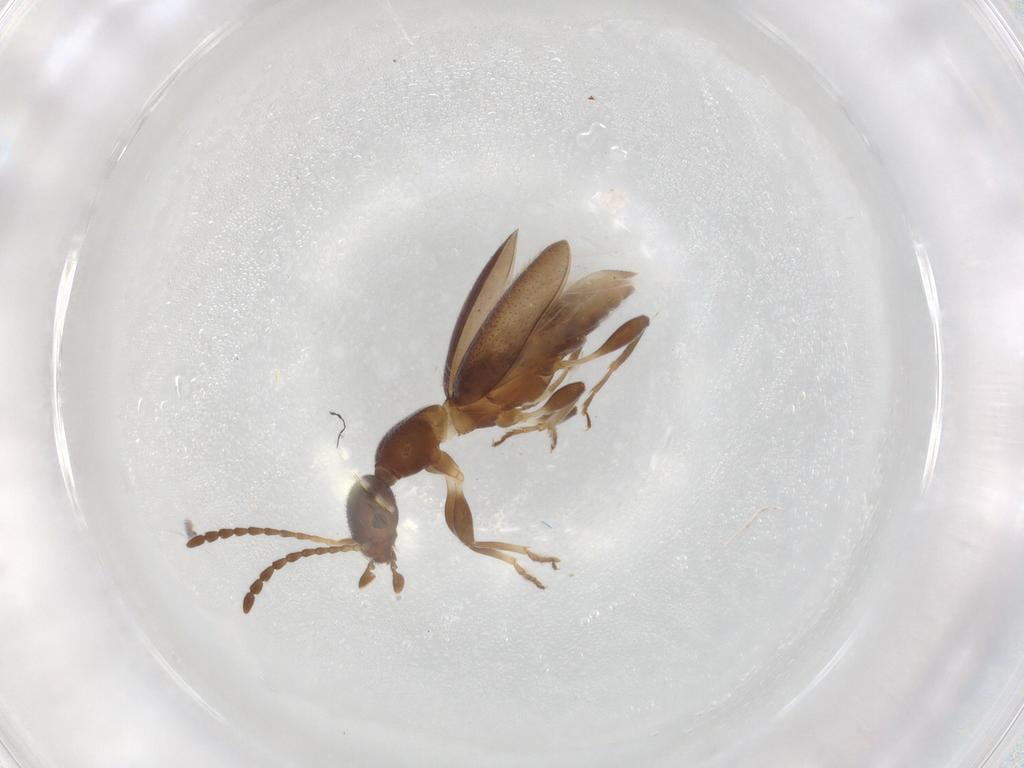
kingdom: Animalia
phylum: Arthropoda
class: Insecta
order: Coleoptera
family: Anthicidae
